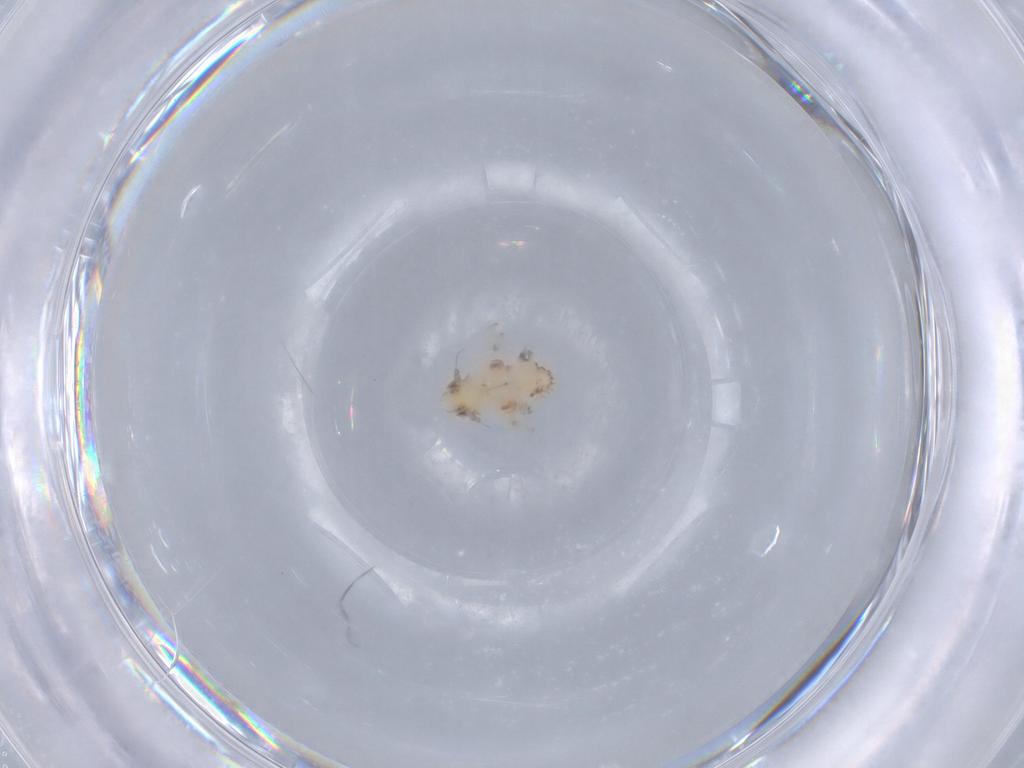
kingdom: Animalia
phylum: Arthropoda
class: Insecta
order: Hemiptera
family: Nogodinidae
